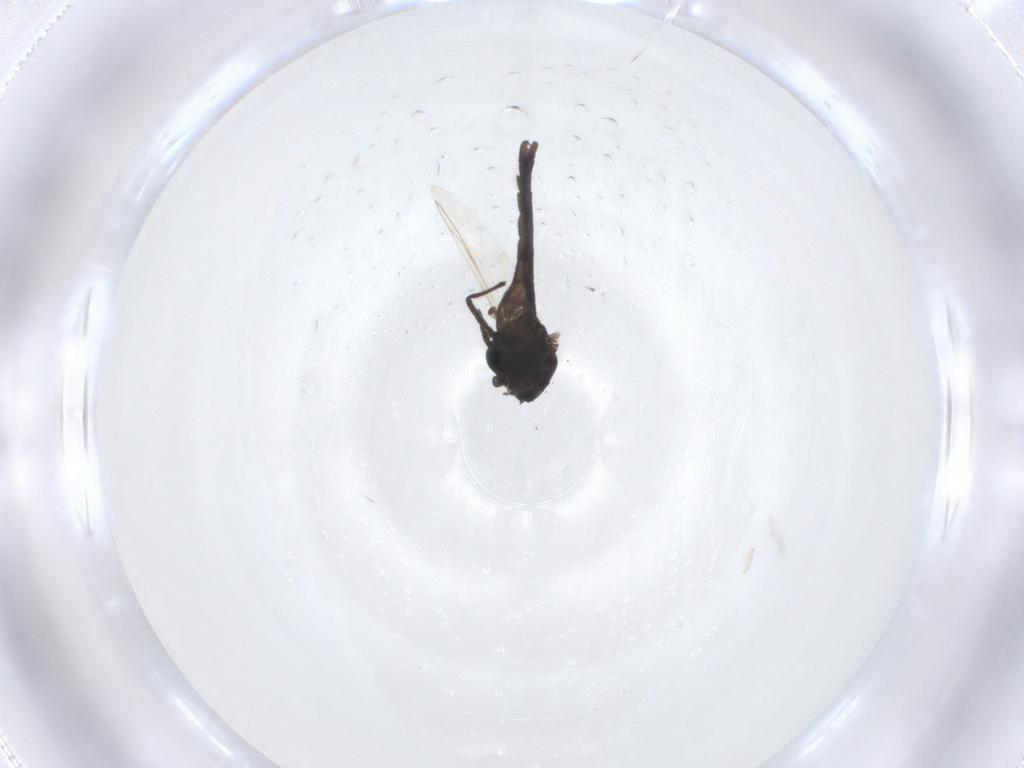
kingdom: Animalia
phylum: Arthropoda
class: Insecta
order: Diptera
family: Chironomidae
